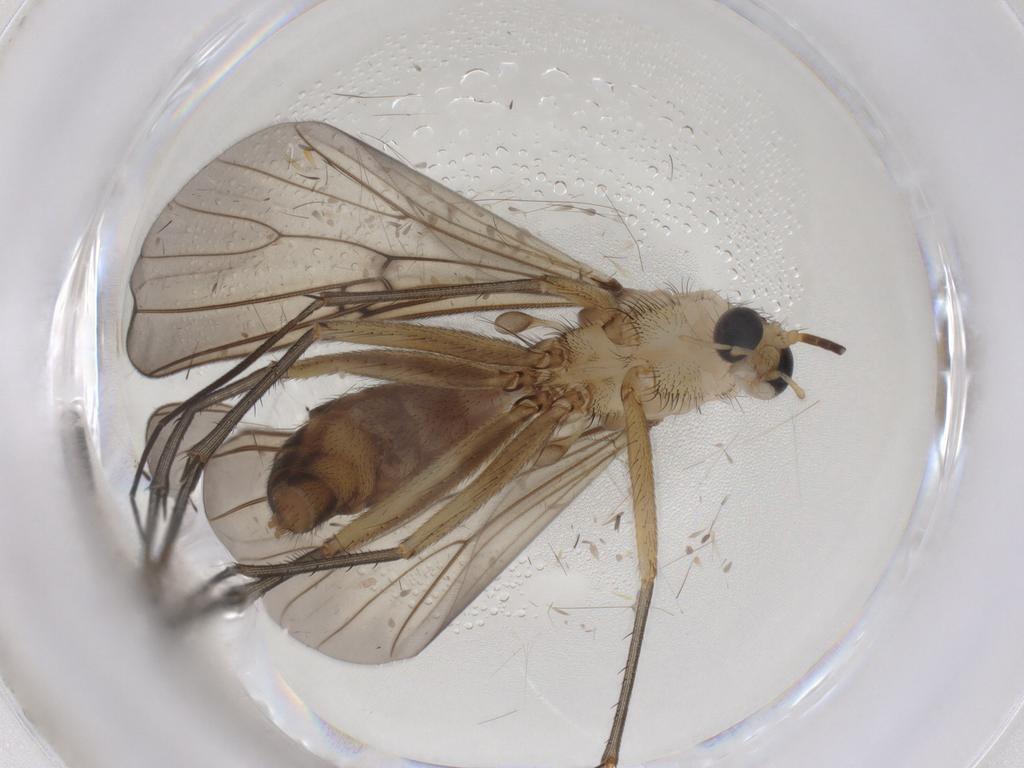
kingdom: Animalia
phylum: Arthropoda
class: Insecta
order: Diptera
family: Mycetophilidae
